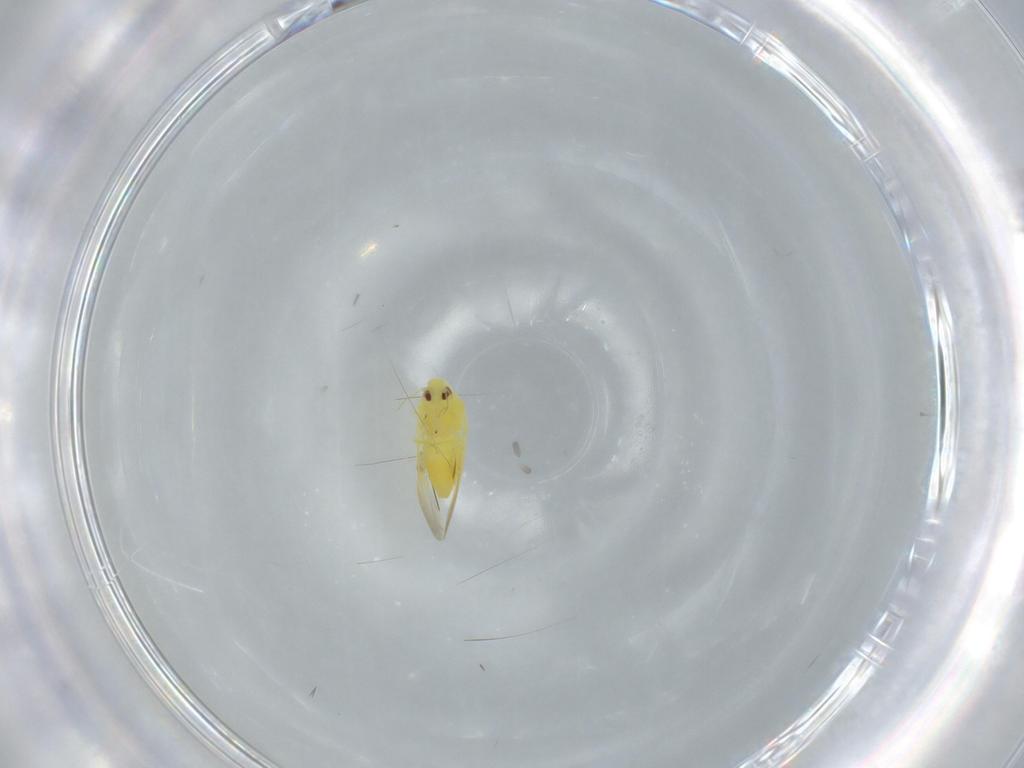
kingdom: Animalia
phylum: Arthropoda
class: Insecta
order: Hemiptera
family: Aleyrodidae
